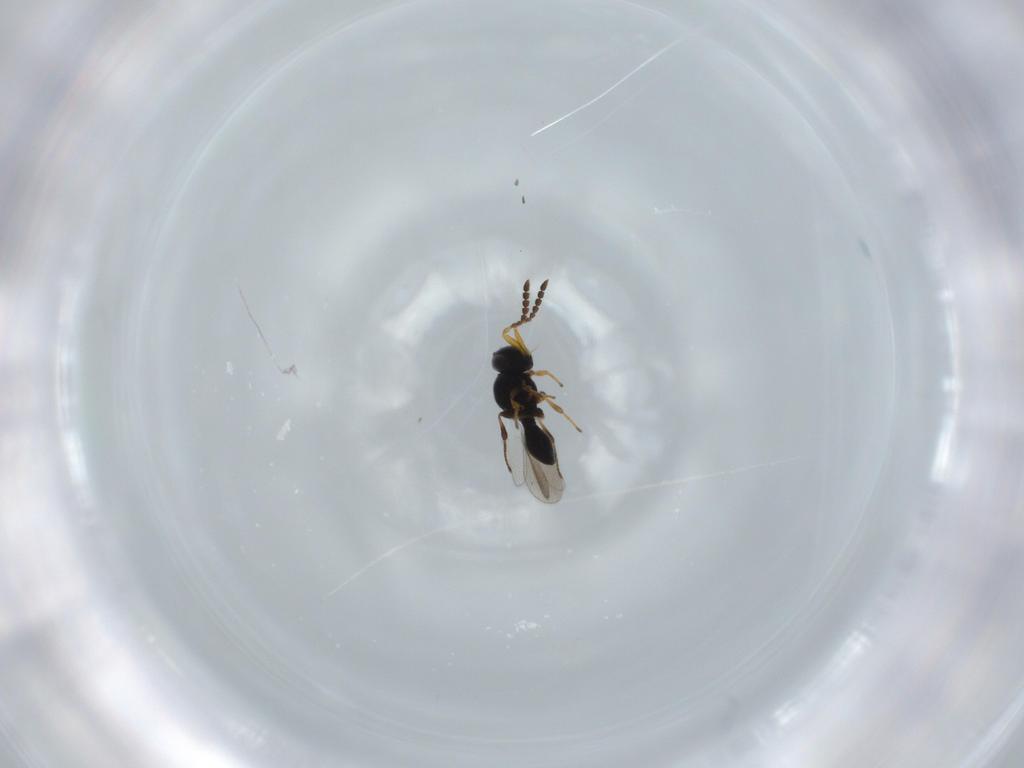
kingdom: Animalia
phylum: Arthropoda
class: Insecta
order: Hymenoptera
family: Platygastridae
